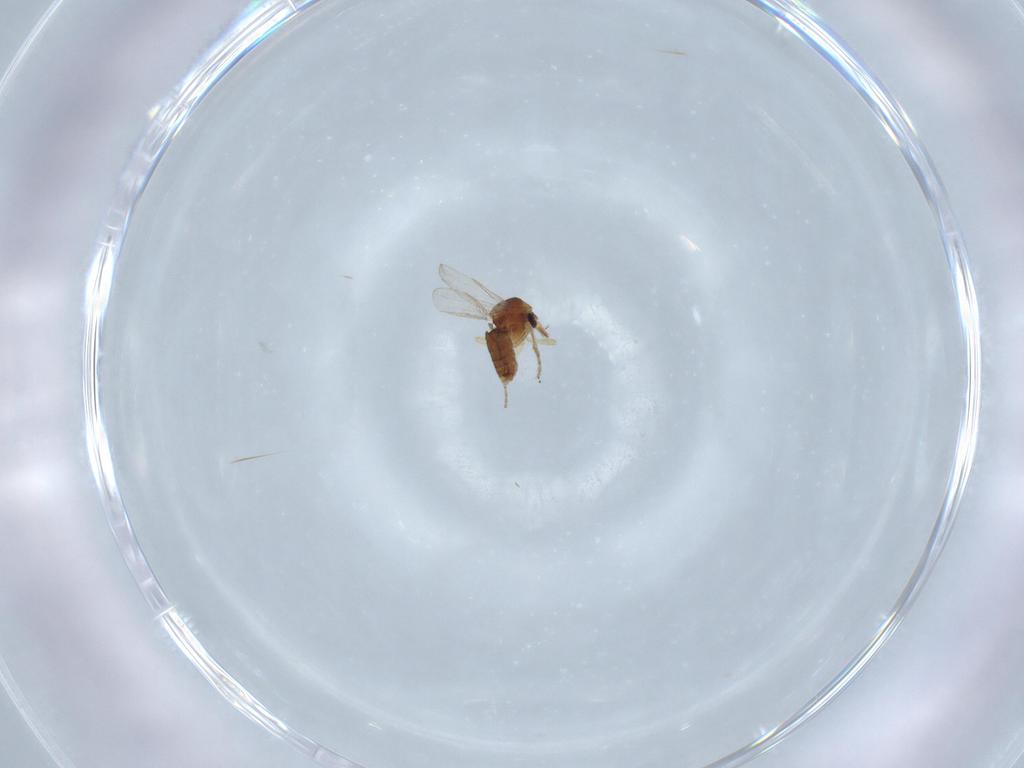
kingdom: Animalia
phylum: Arthropoda
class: Insecta
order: Diptera
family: Ceratopogonidae
